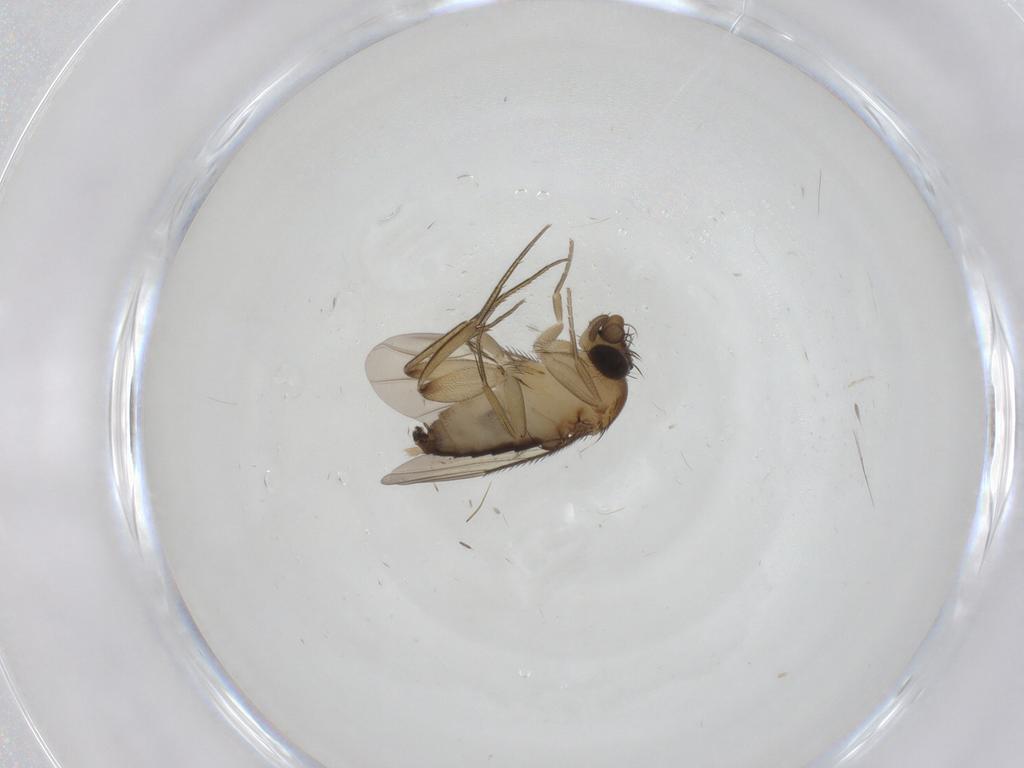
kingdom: Animalia
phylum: Arthropoda
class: Insecta
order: Diptera
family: Phoridae
